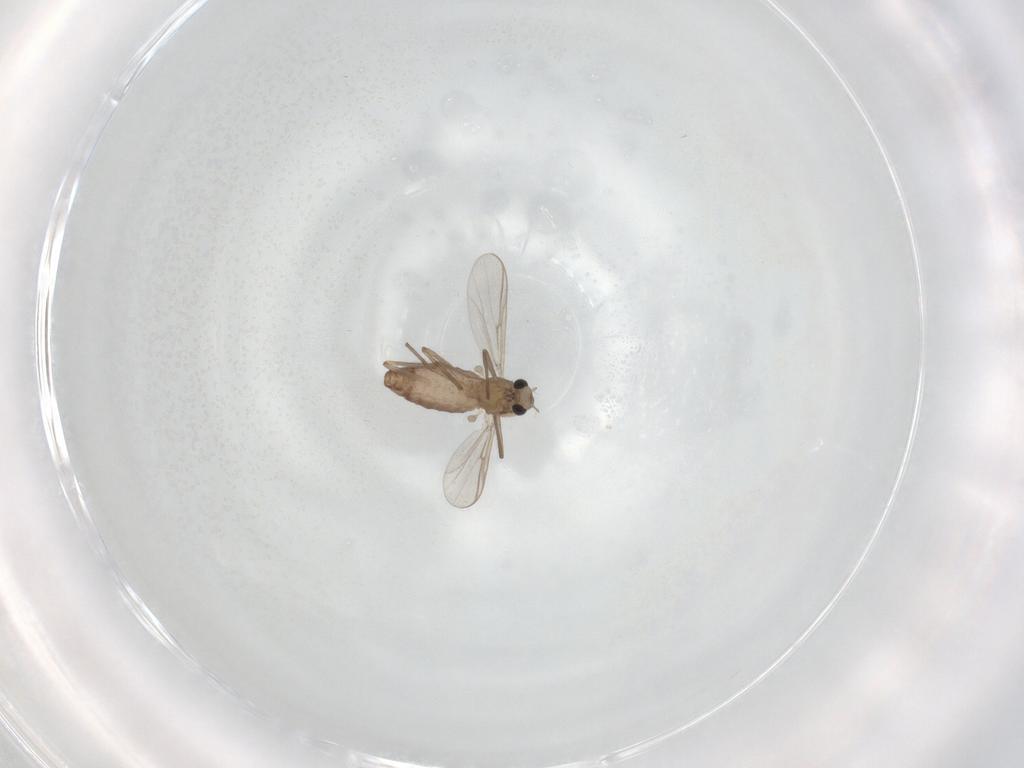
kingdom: Animalia
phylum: Arthropoda
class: Insecta
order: Diptera
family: Chironomidae
